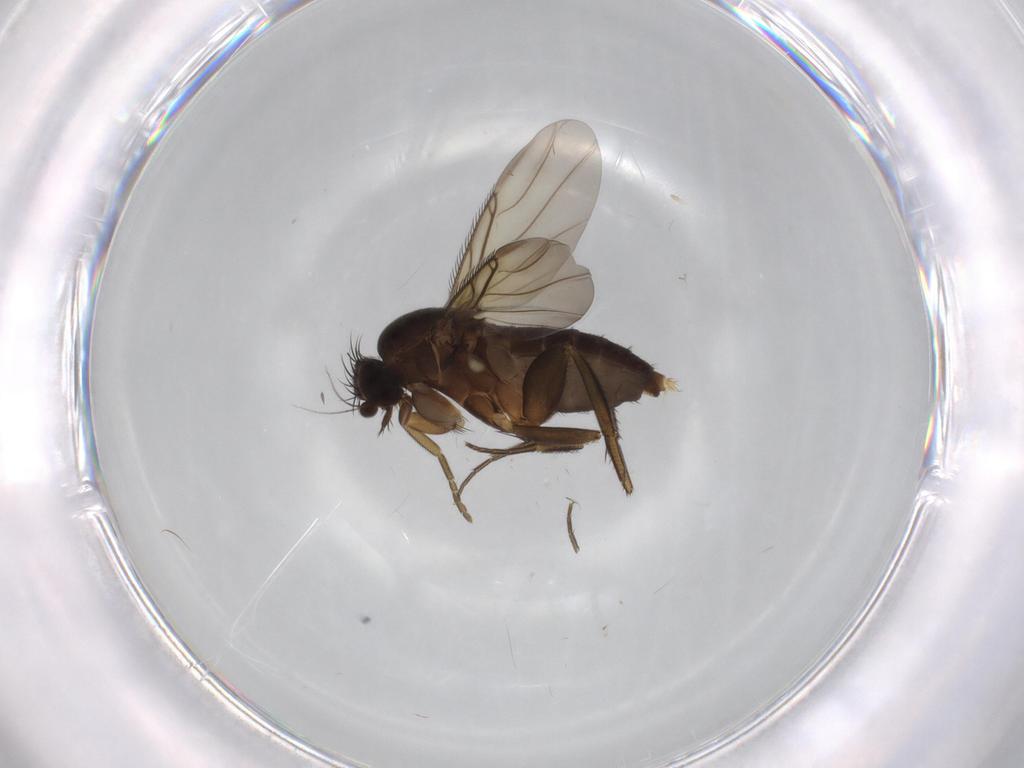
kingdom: Animalia
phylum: Arthropoda
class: Insecta
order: Diptera
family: Phoridae
